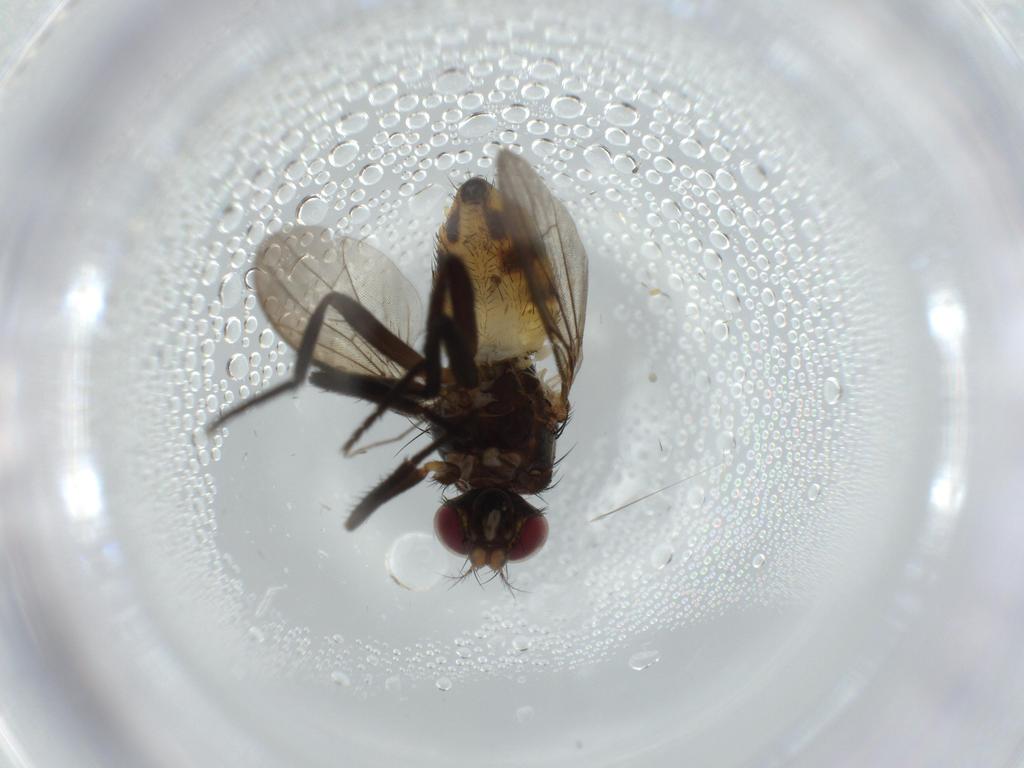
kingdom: Animalia
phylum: Arthropoda
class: Insecta
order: Diptera
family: Anthomyiidae
